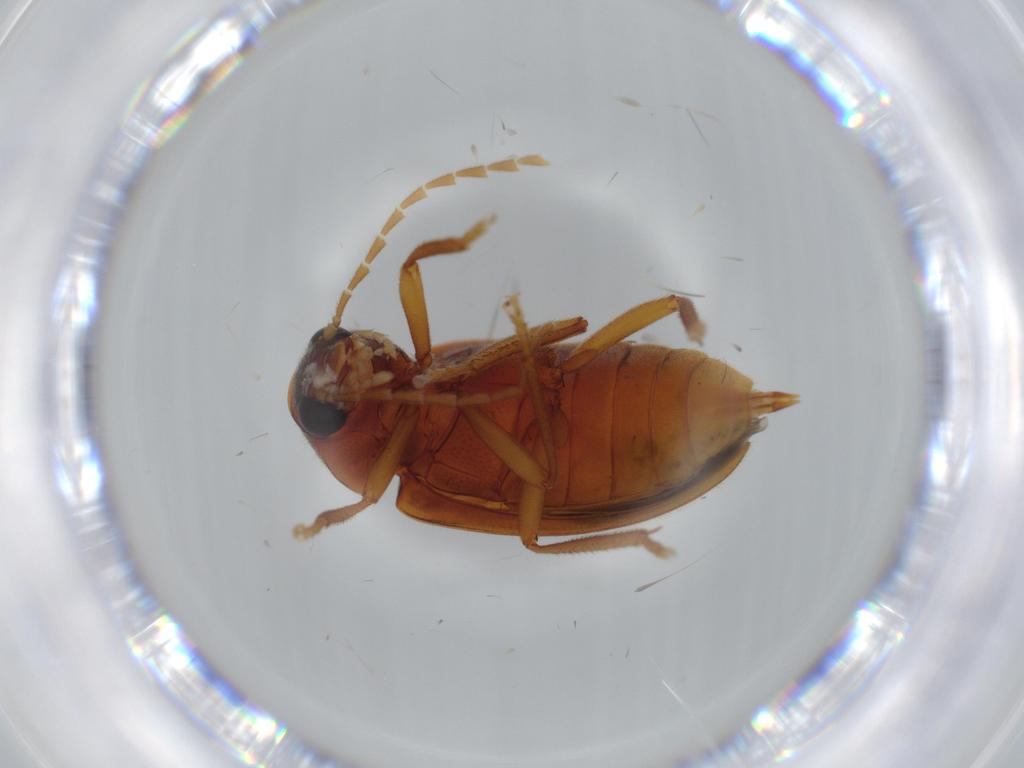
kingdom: Animalia
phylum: Arthropoda
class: Insecta
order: Coleoptera
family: Ptilodactylidae
